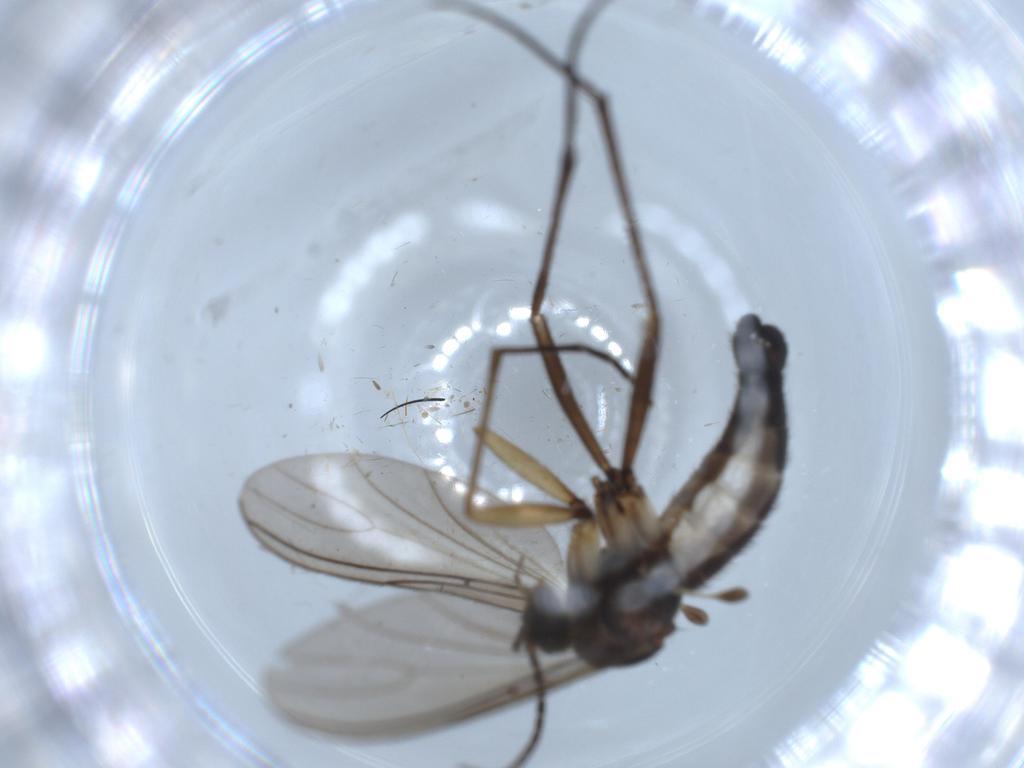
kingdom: Animalia
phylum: Arthropoda
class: Insecta
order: Diptera
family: Sciaridae
